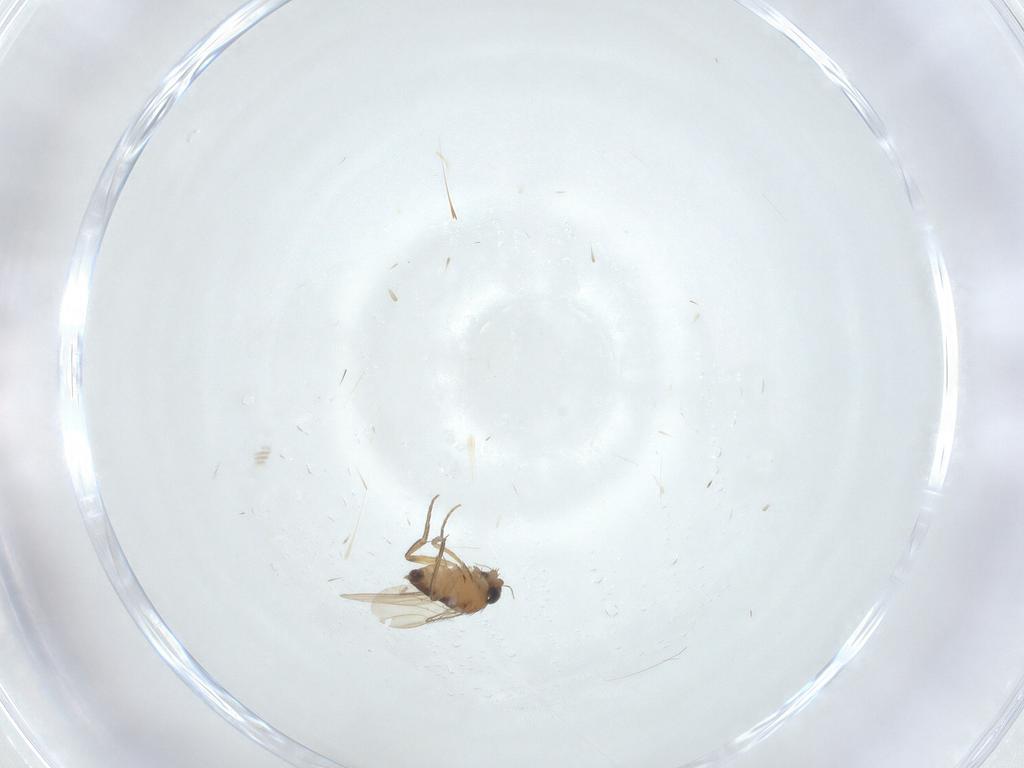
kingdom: Animalia
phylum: Arthropoda
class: Insecta
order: Diptera
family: Phoridae
